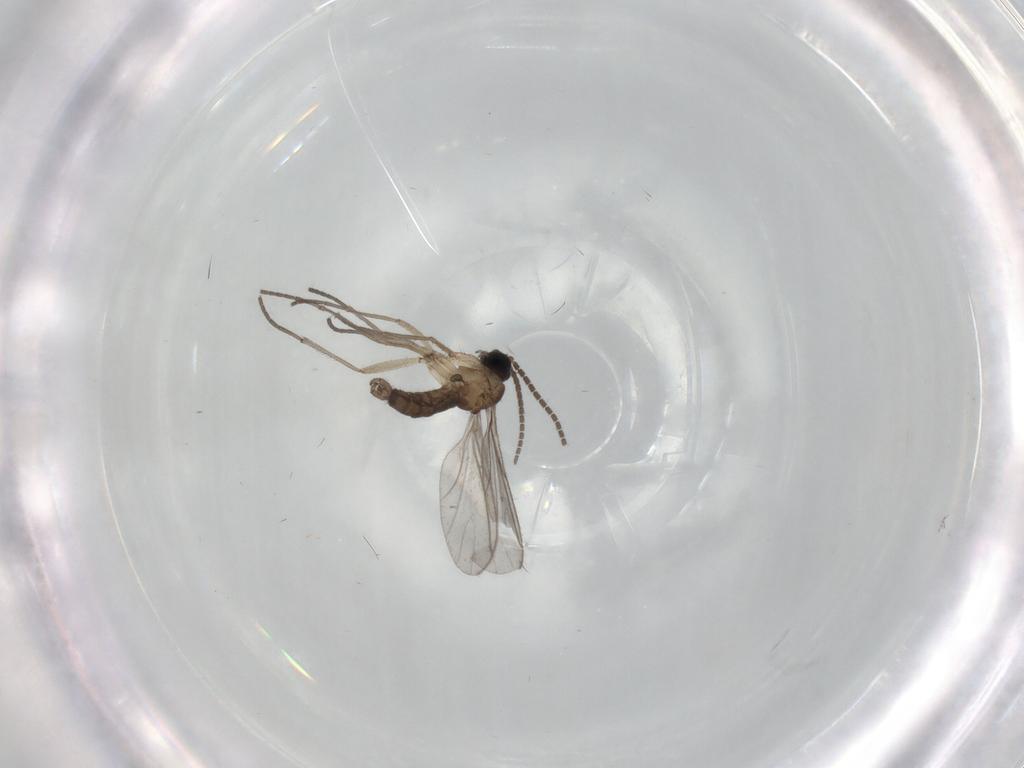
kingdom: Animalia
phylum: Arthropoda
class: Insecta
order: Diptera
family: Sciaridae
